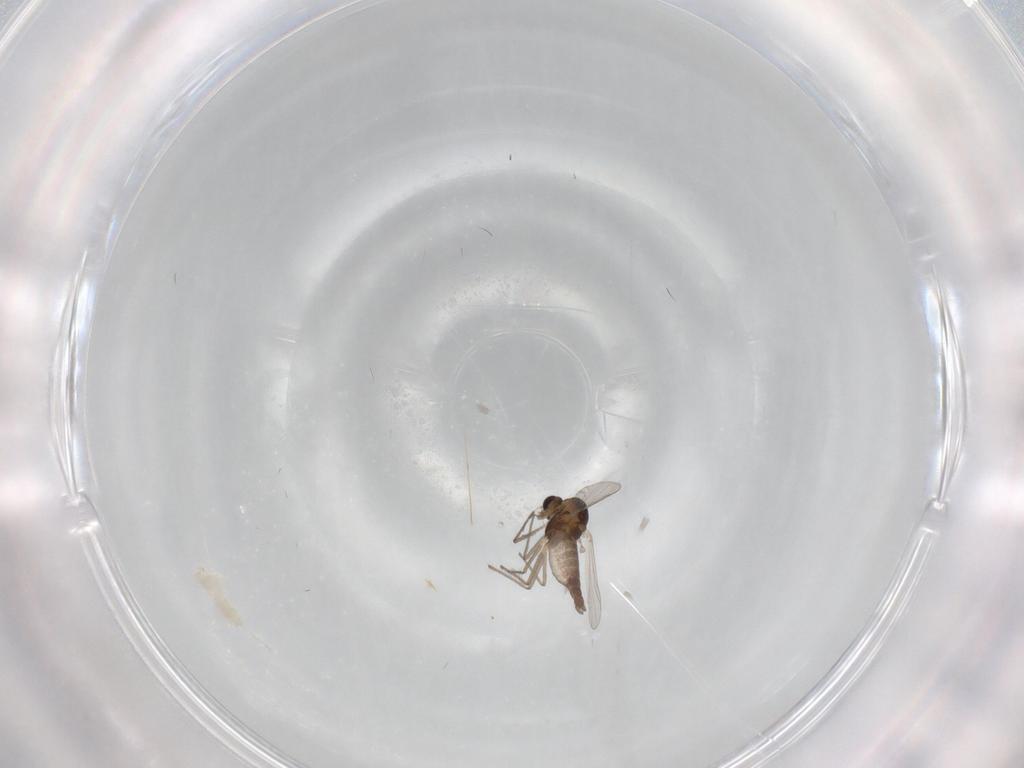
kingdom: Animalia
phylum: Arthropoda
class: Insecta
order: Diptera
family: Chironomidae
